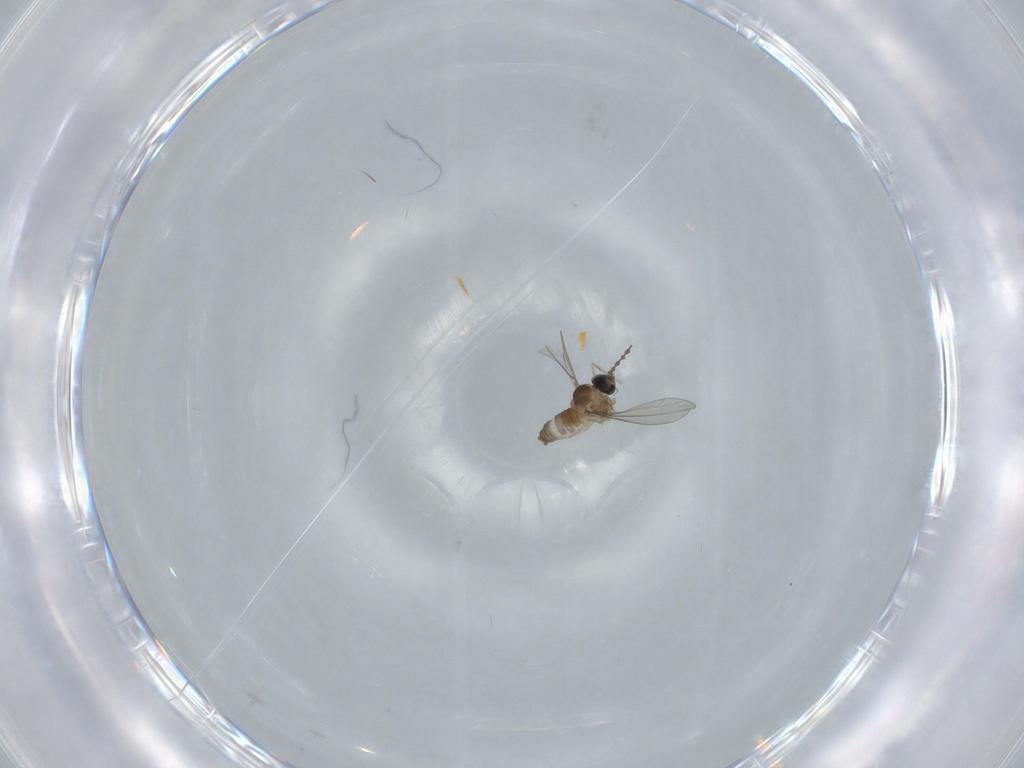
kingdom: Animalia
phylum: Arthropoda
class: Insecta
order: Diptera
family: Cecidomyiidae
